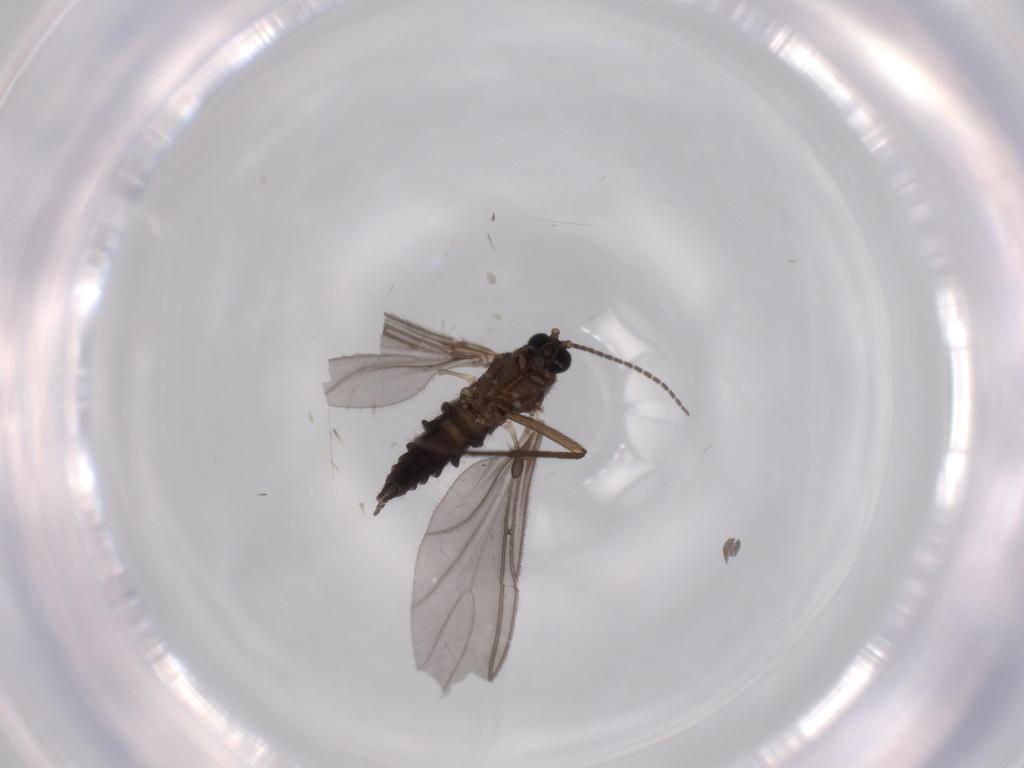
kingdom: Animalia
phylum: Arthropoda
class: Insecta
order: Diptera
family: Sciaridae
